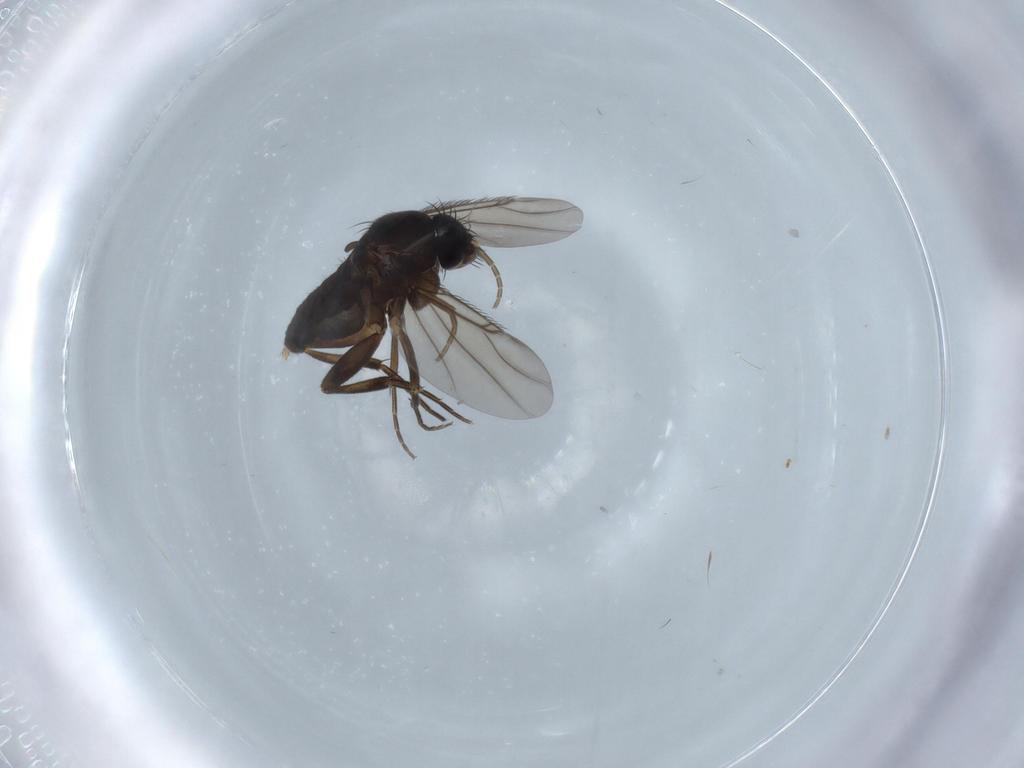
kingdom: Animalia
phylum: Arthropoda
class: Insecta
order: Diptera
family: Phoridae
